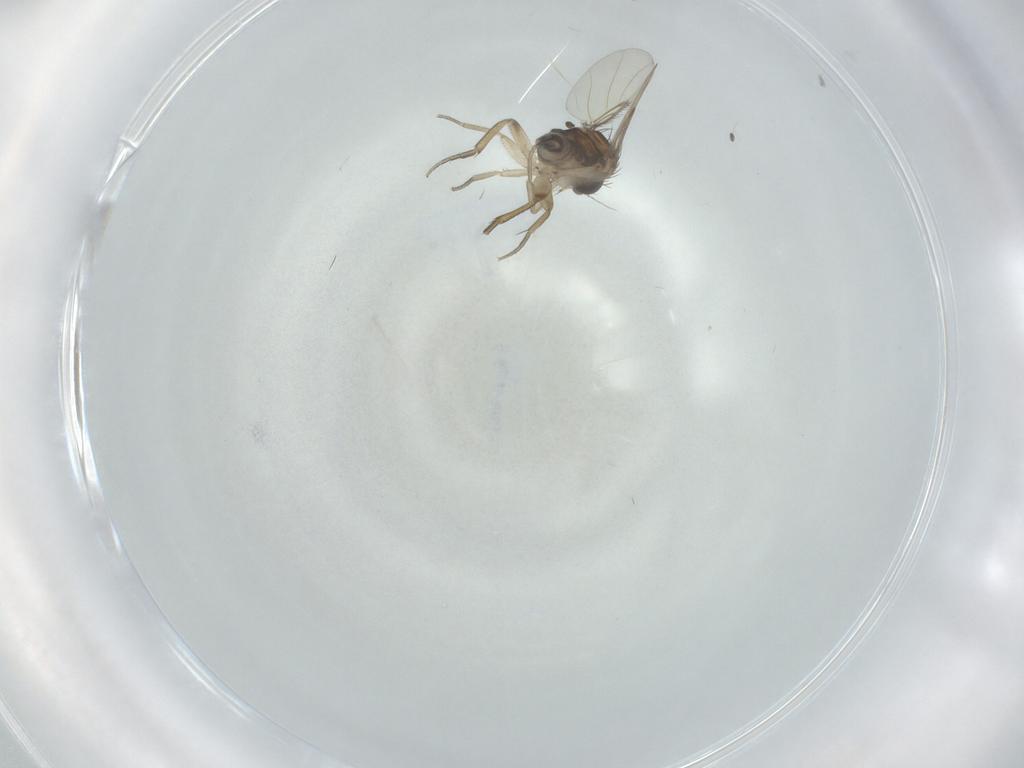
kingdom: Animalia
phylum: Arthropoda
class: Insecta
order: Diptera
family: Phoridae
